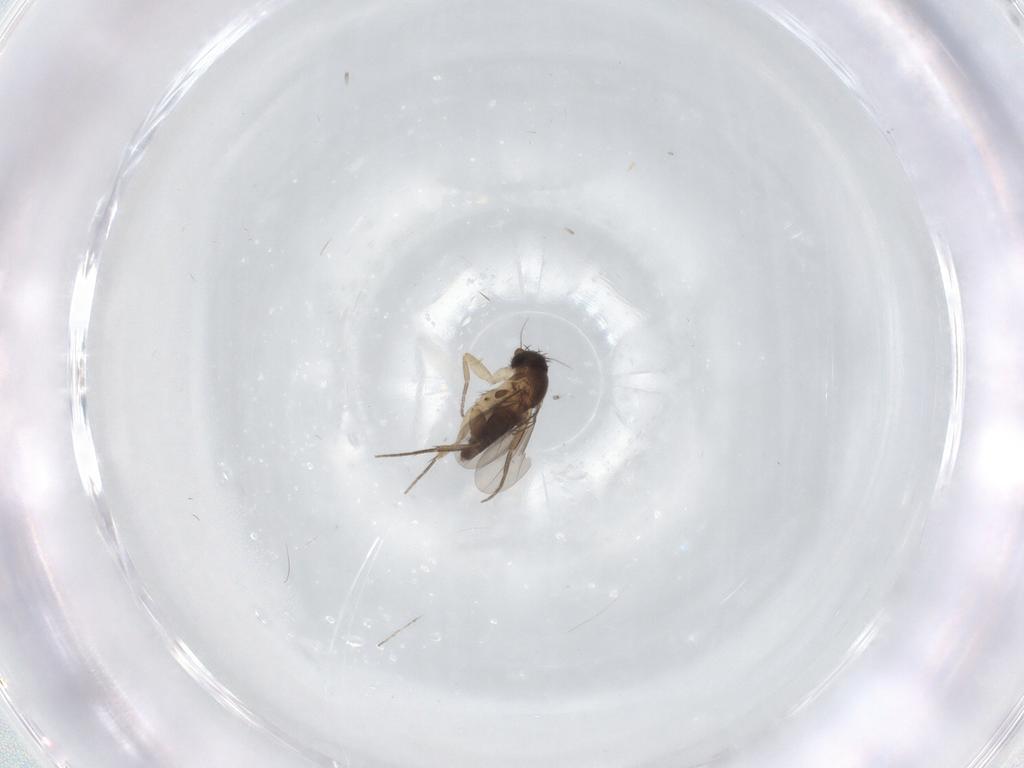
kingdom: Animalia
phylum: Arthropoda
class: Insecta
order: Diptera
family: Phoridae
